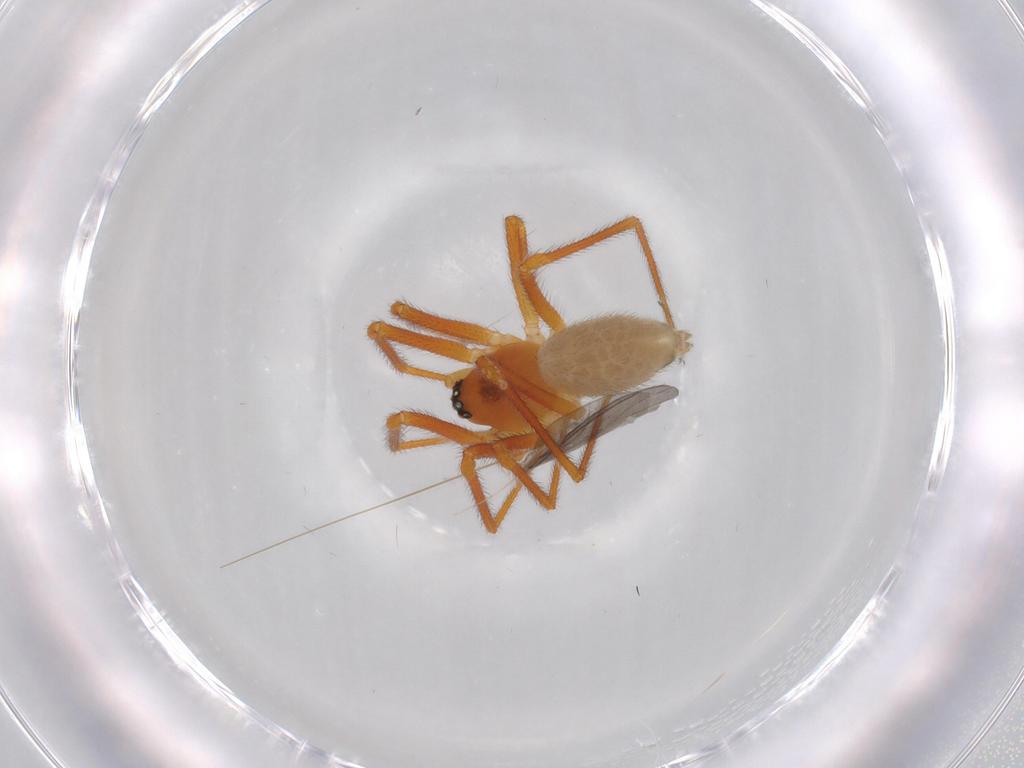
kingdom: Animalia
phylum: Arthropoda
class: Arachnida
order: Araneae
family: Linyphiidae
